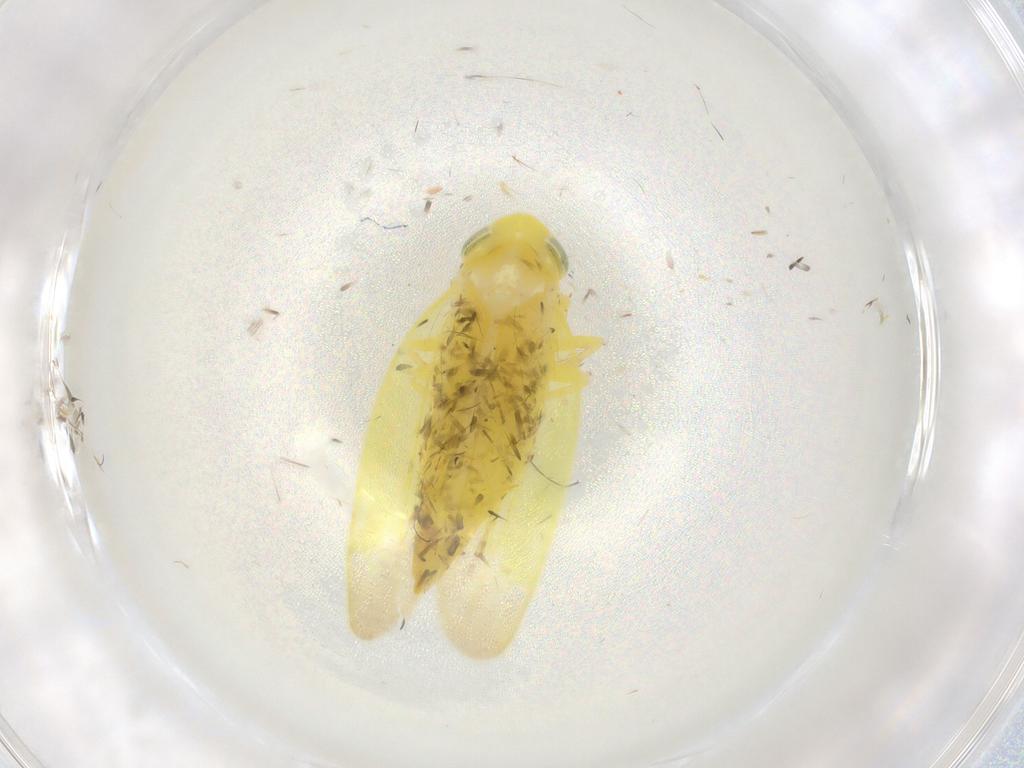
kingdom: Animalia
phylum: Arthropoda
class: Insecta
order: Hemiptera
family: Cicadellidae
